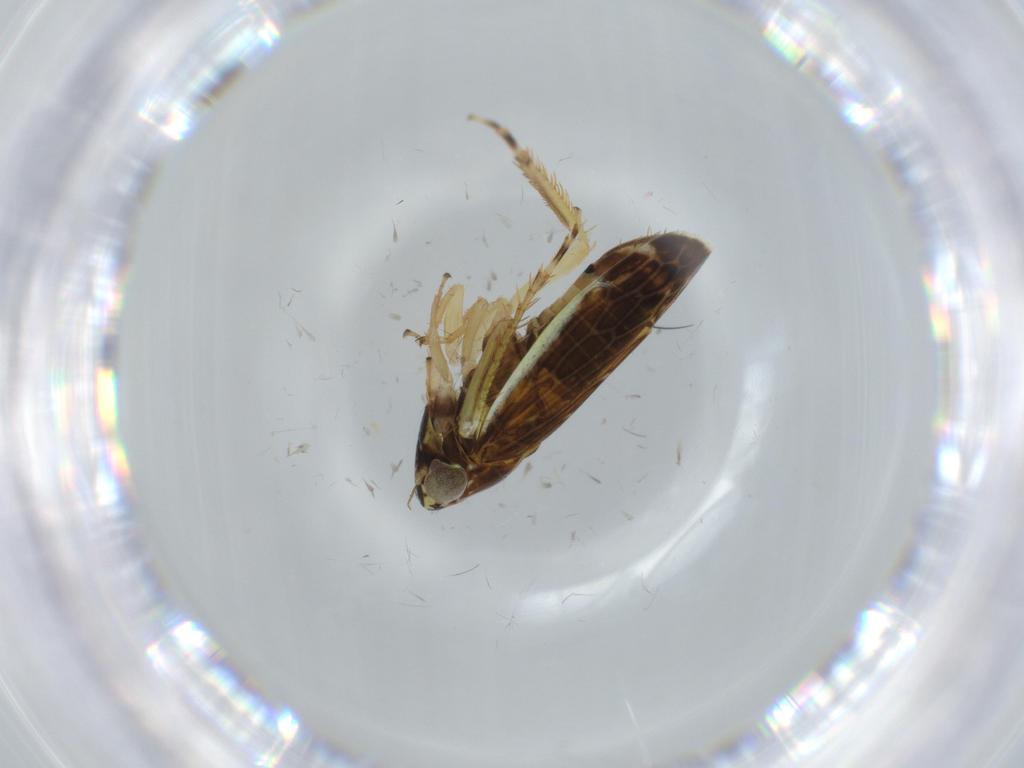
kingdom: Animalia
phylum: Arthropoda
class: Insecta
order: Hemiptera
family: Cicadellidae
